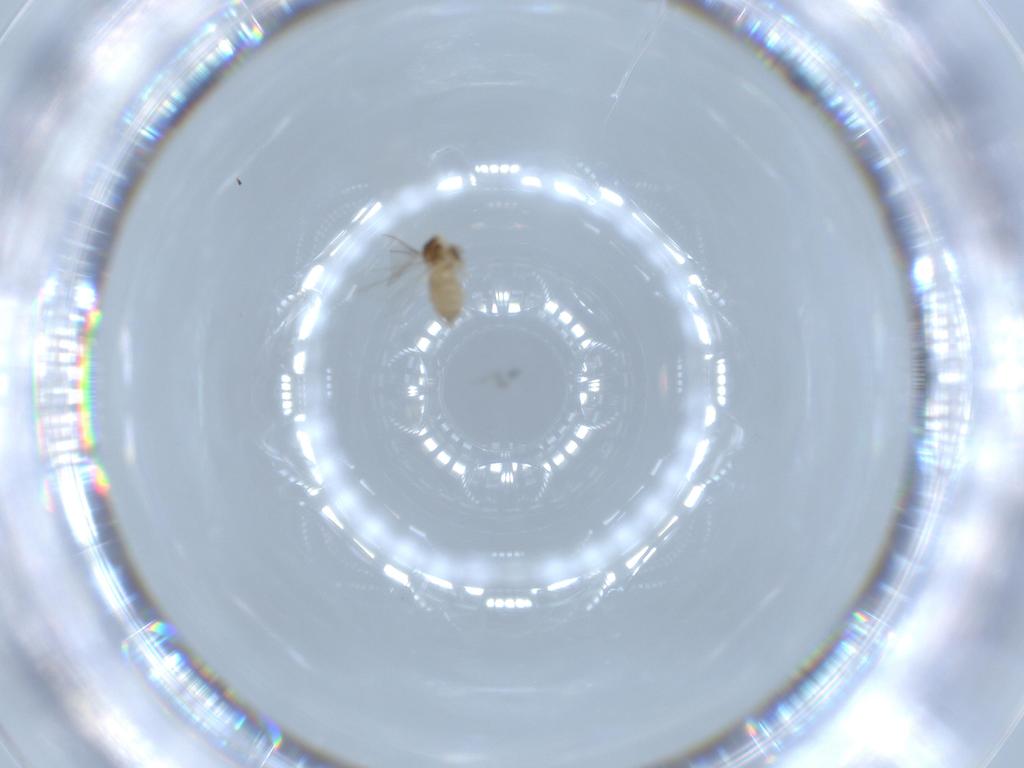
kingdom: Animalia
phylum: Arthropoda
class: Insecta
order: Diptera
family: Cecidomyiidae
